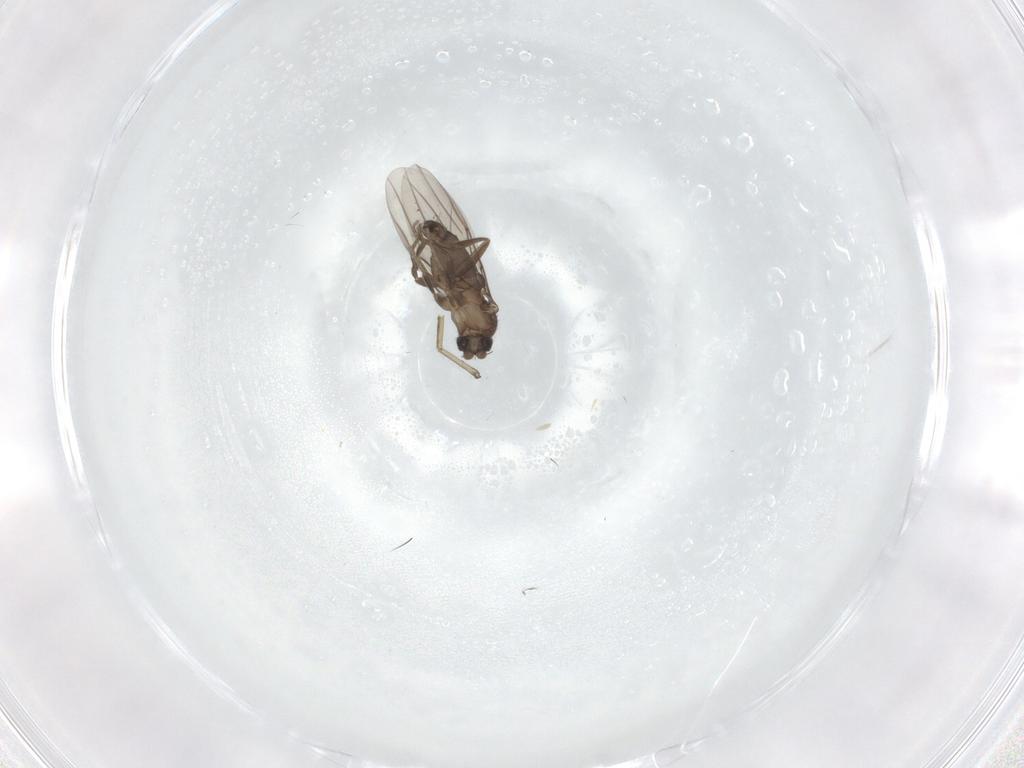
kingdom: Animalia
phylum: Arthropoda
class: Insecta
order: Diptera
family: Phoridae
